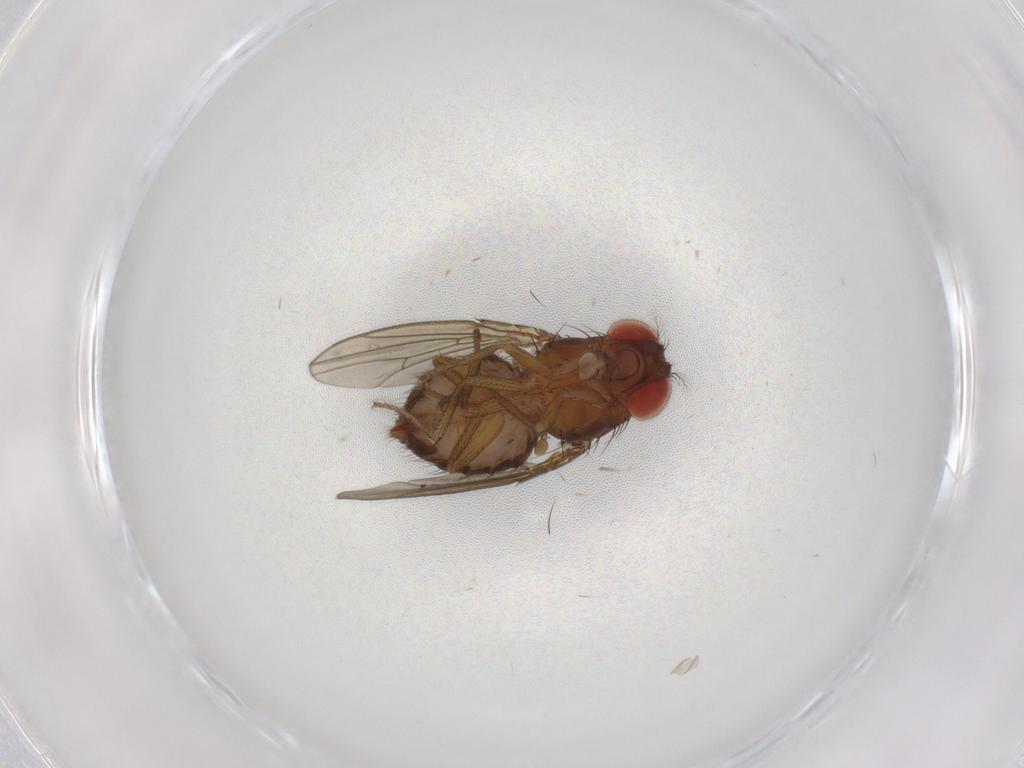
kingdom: Animalia
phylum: Arthropoda
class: Insecta
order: Diptera
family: Drosophilidae
